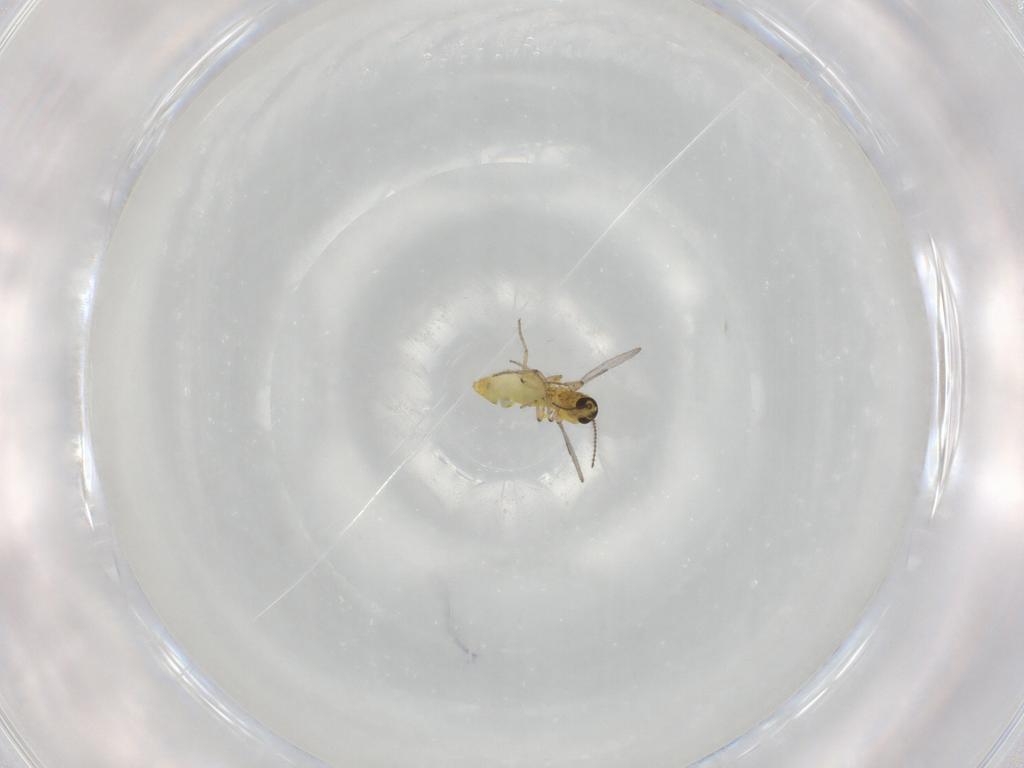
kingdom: Animalia
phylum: Arthropoda
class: Insecta
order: Diptera
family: Ceratopogonidae
